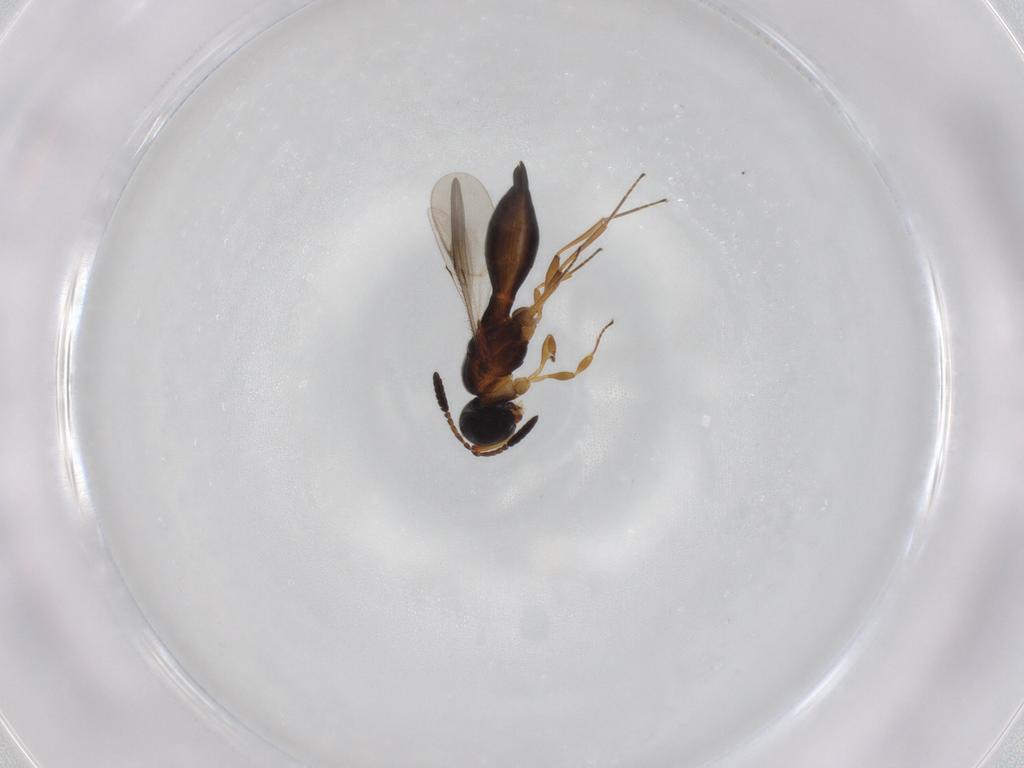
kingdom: Animalia
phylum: Arthropoda
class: Insecta
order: Hymenoptera
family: Scelionidae
